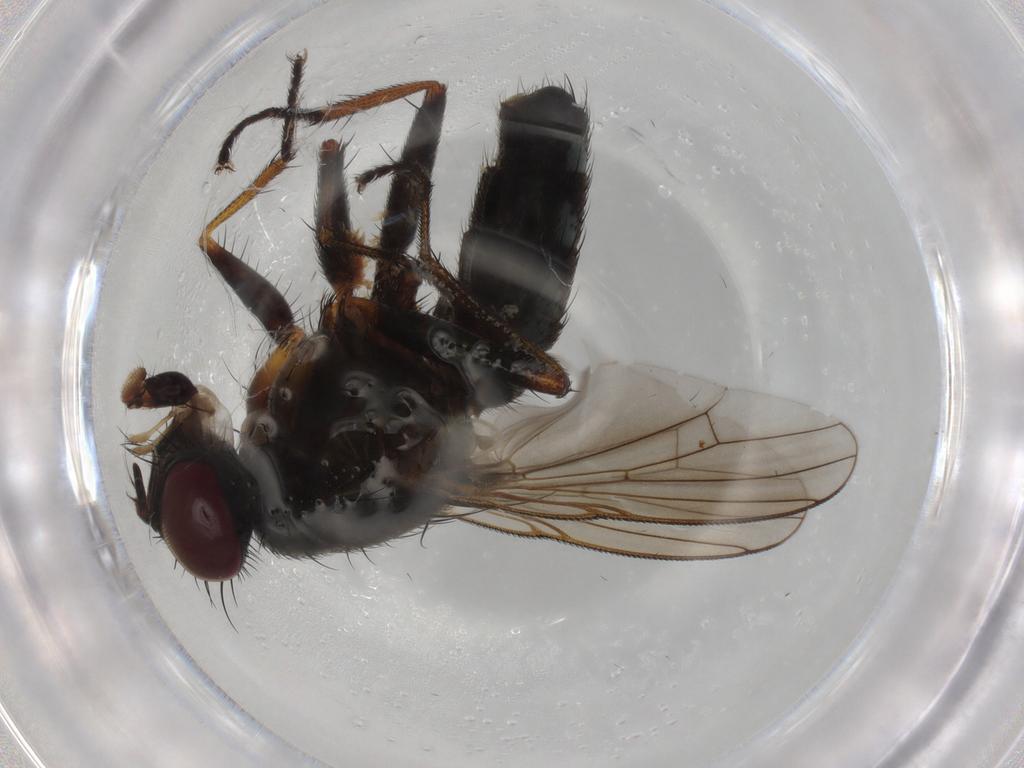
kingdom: Animalia
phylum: Arthropoda
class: Insecta
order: Diptera
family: Muscidae
